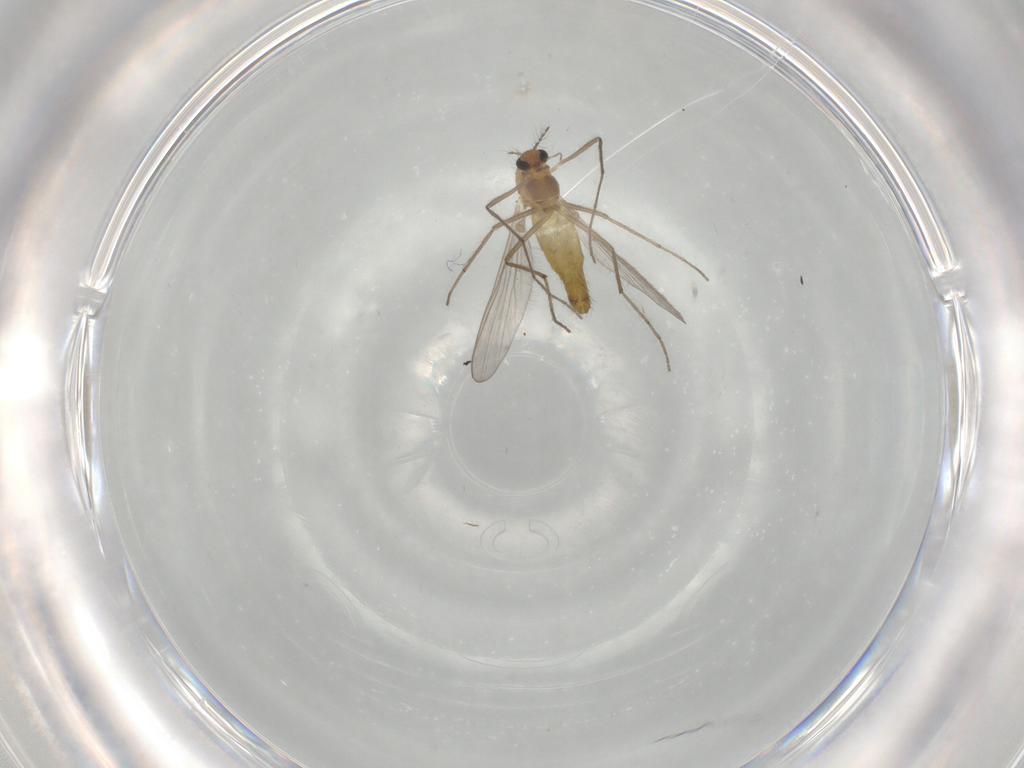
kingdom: Animalia
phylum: Arthropoda
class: Insecta
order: Diptera
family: Chironomidae
